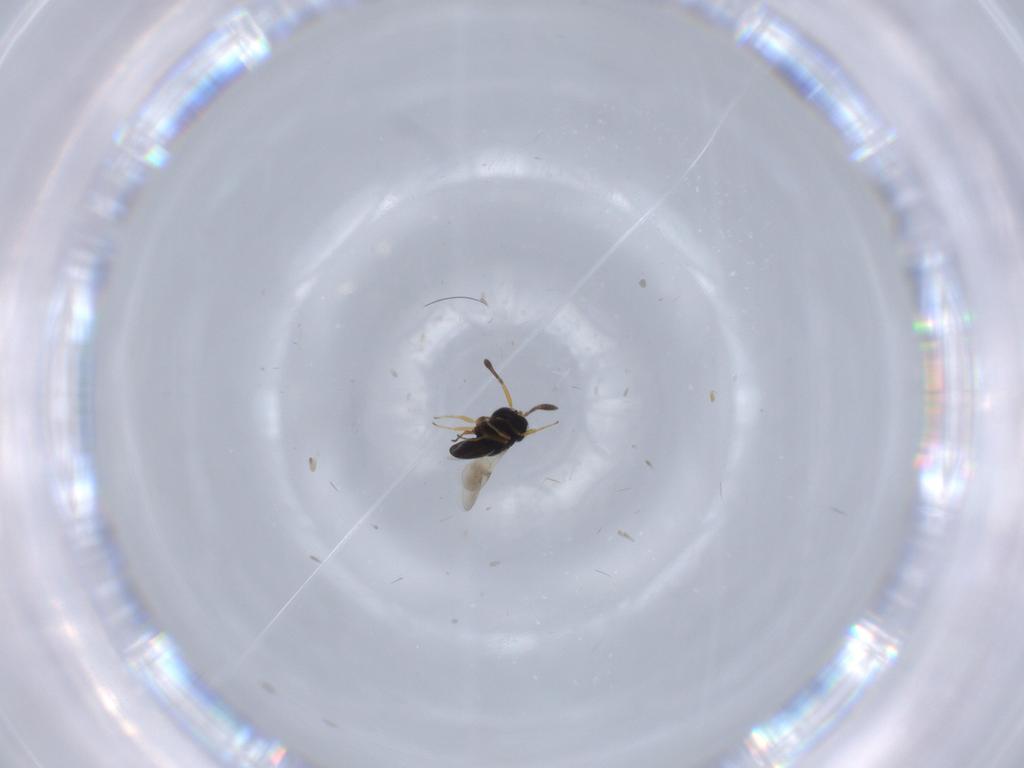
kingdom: Animalia
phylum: Arthropoda
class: Insecta
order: Hymenoptera
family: Scelionidae
